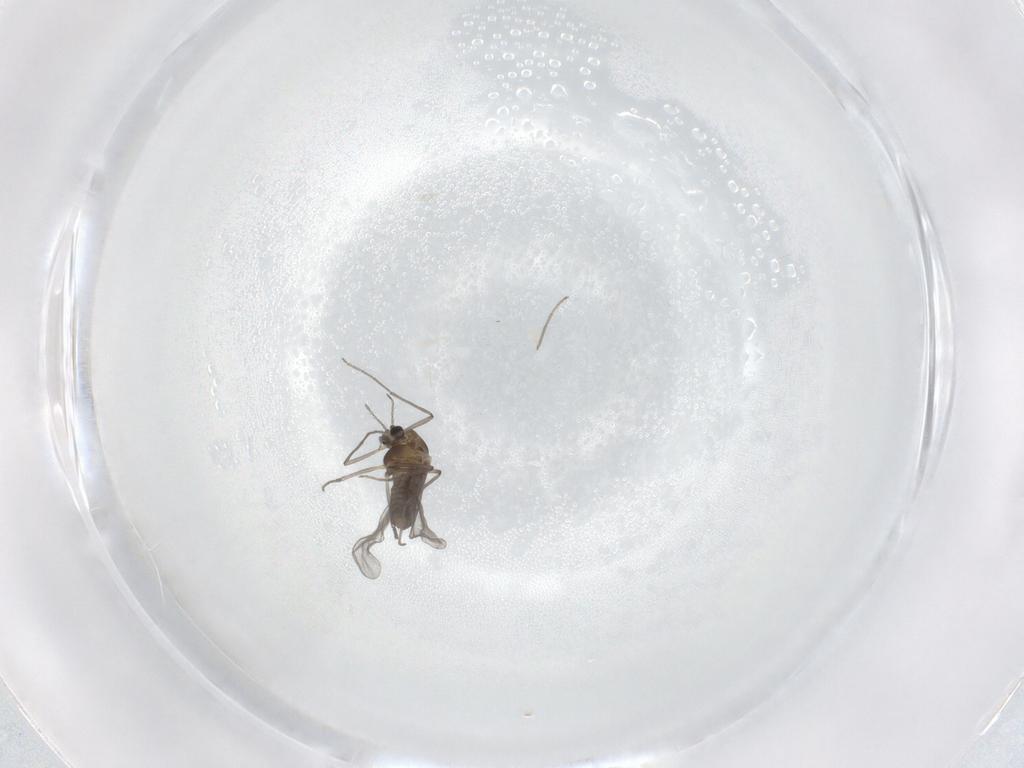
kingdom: Animalia
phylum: Arthropoda
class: Insecta
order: Diptera
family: Chironomidae
